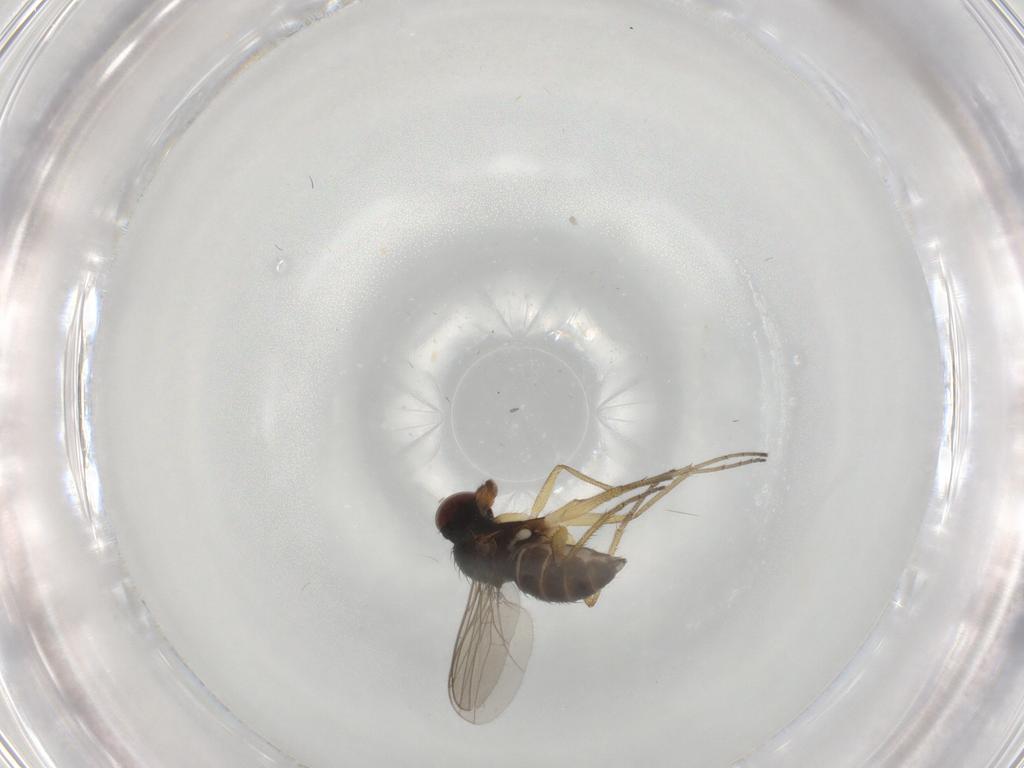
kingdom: Animalia
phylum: Arthropoda
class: Insecta
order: Diptera
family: Dolichopodidae
